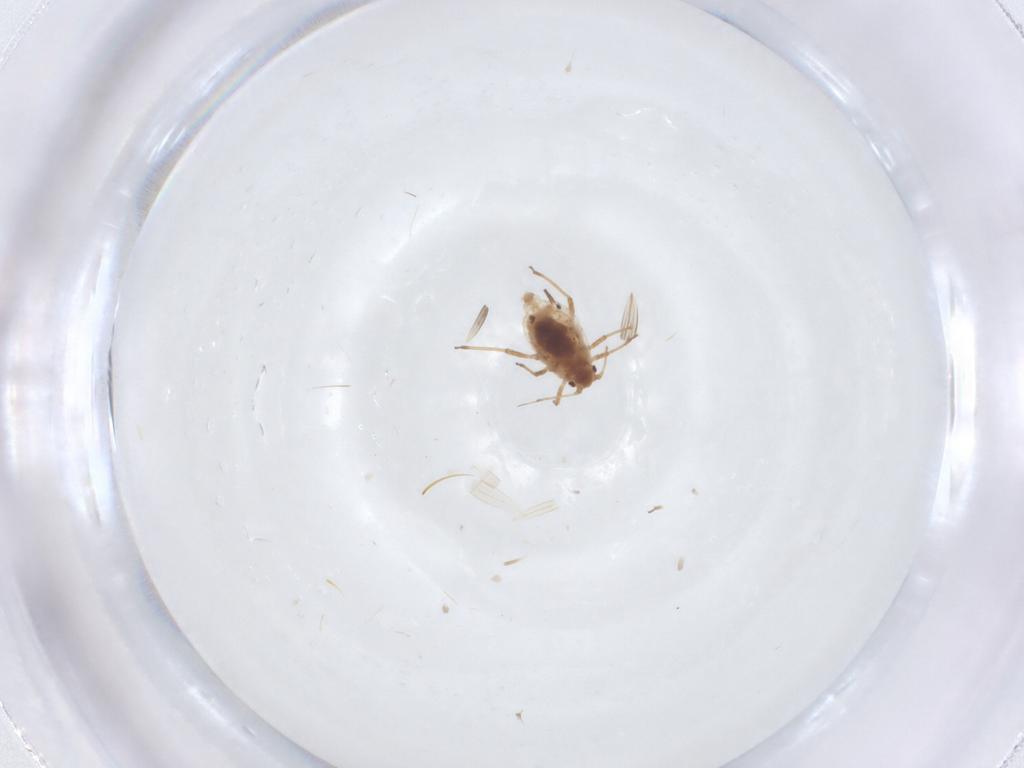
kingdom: Animalia
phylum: Arthropoda
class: Insecta
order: Hemiptera
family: Aphididae
